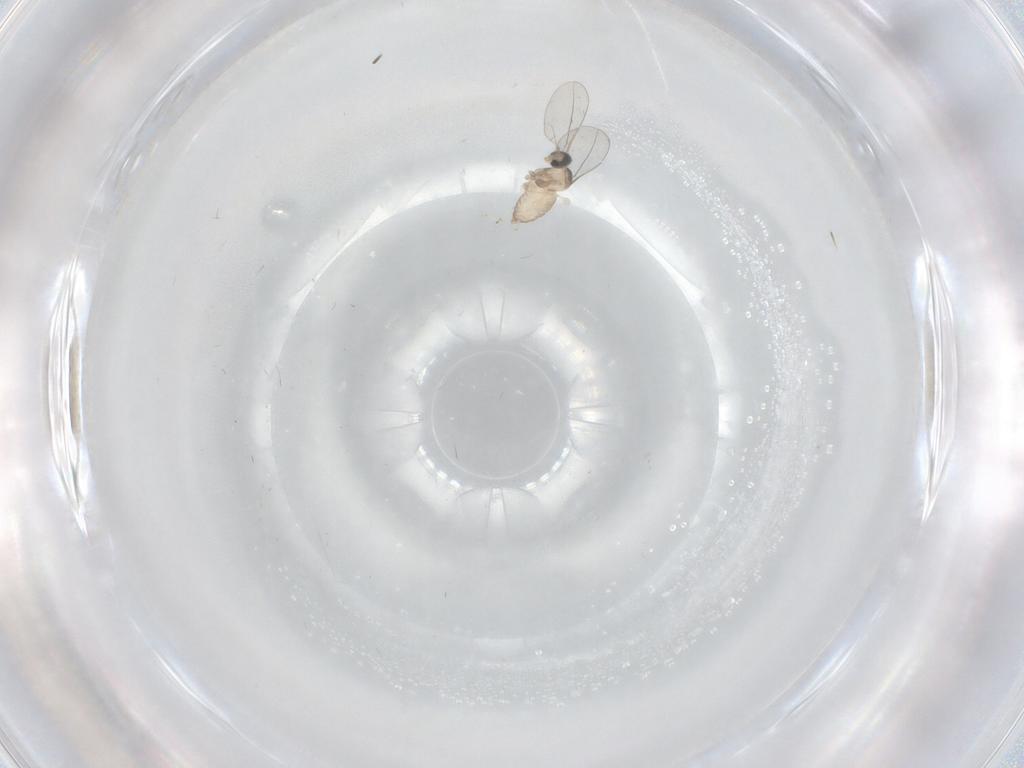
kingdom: Animalia
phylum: Arthropoda
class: Insecta
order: Diptera
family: Cecidomyiidae
